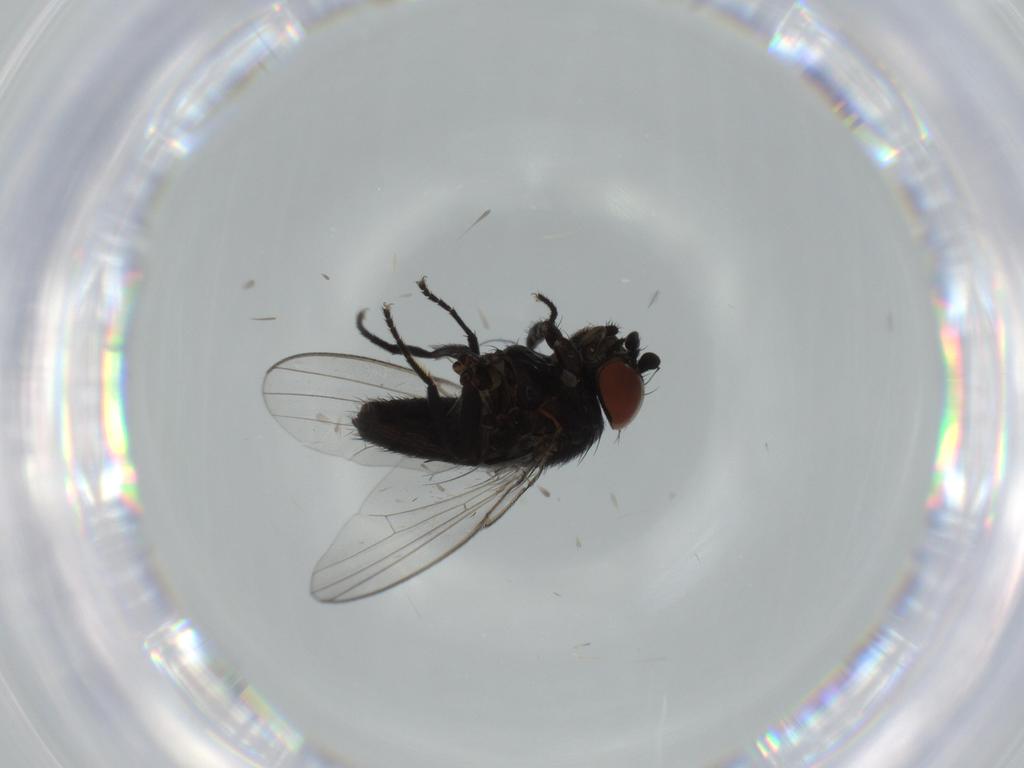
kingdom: Animalia
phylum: Arthropoda
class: Insecta
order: Diptera
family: Milichiidae
